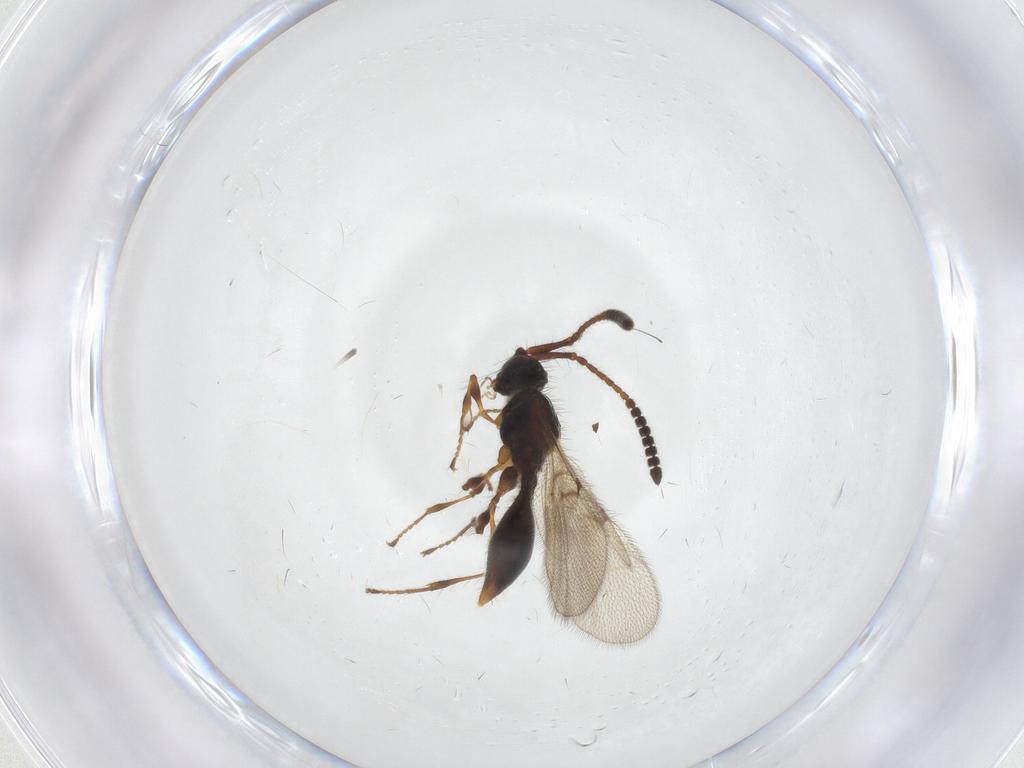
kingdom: Animalia
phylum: Arthropoda
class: Insecta
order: Hymenoptera
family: Diapriidae
